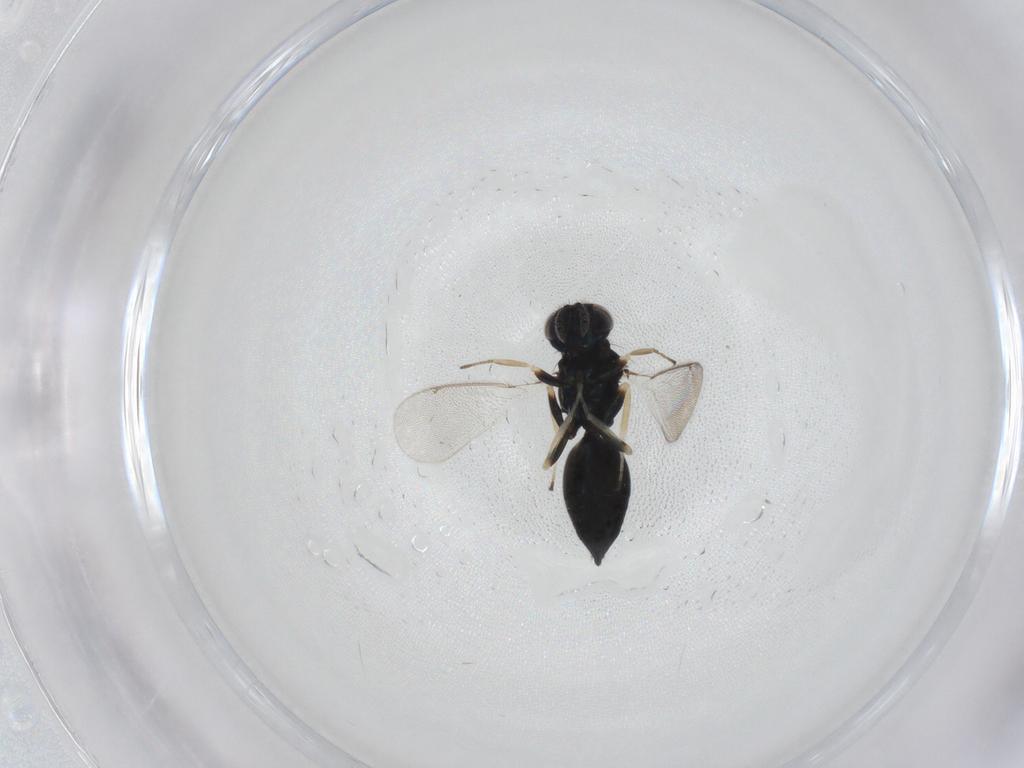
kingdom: Animalia
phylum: Arthropoda
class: Insecta
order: Hymenoptera
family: Eulophidae
